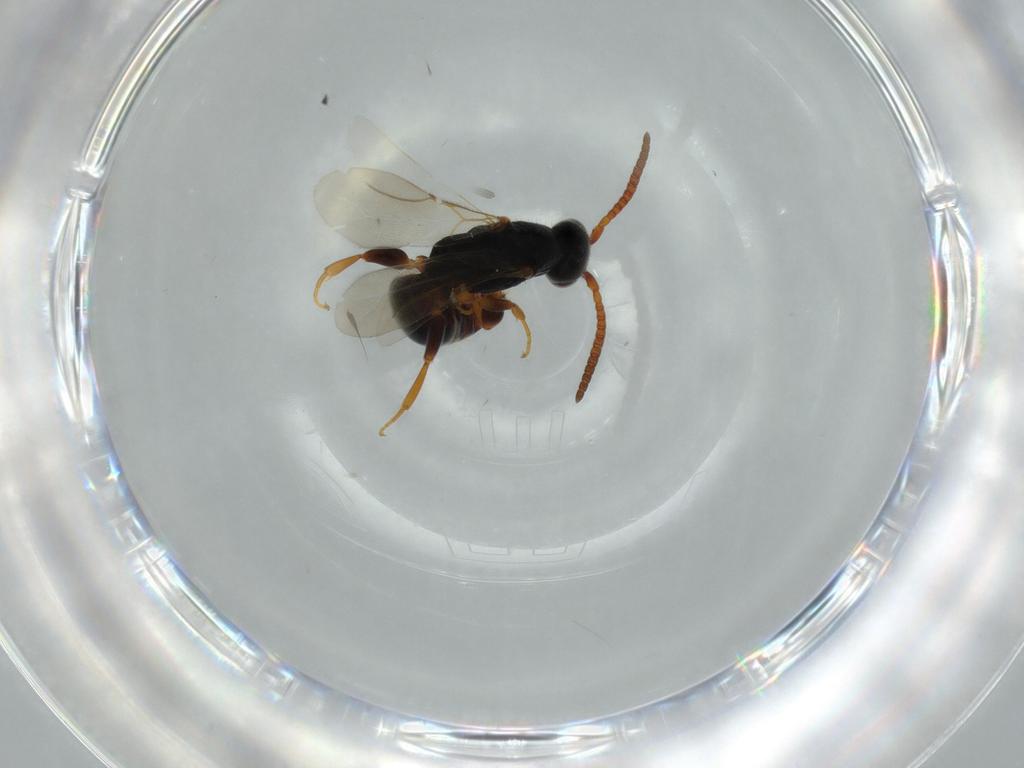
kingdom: Animalia
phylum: Arthropoda
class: Insecta
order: Hymenoptera
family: Bethylidae
